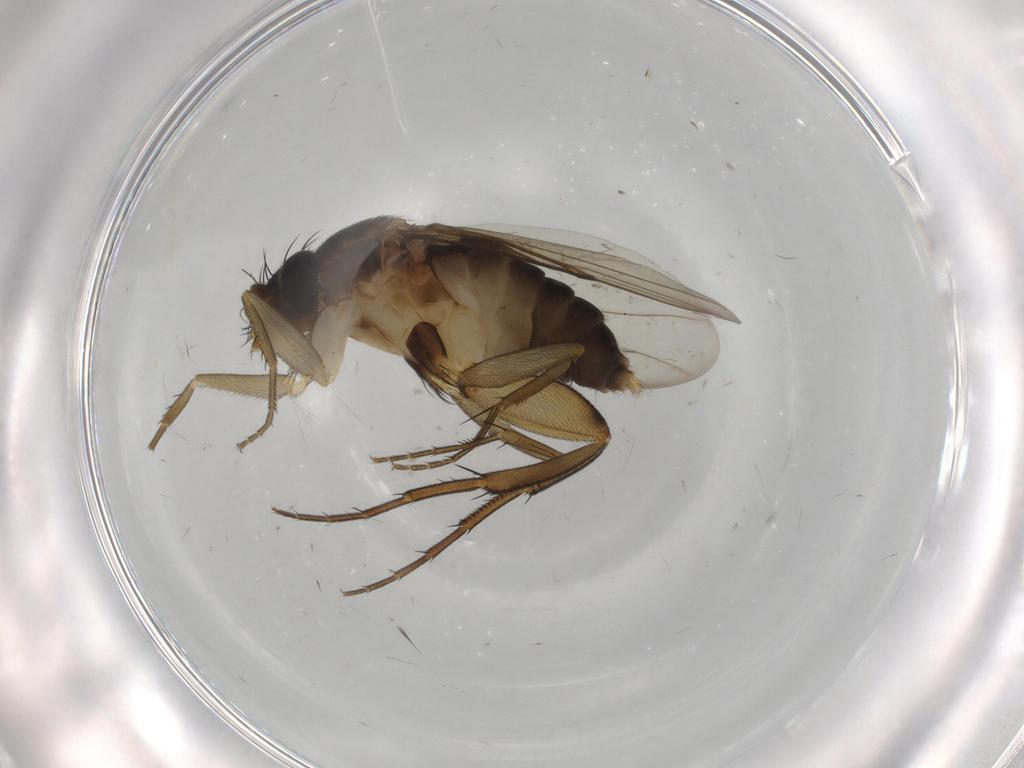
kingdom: Animalia
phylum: Arthropoda
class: Insecta
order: Diptera
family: Phoridae
